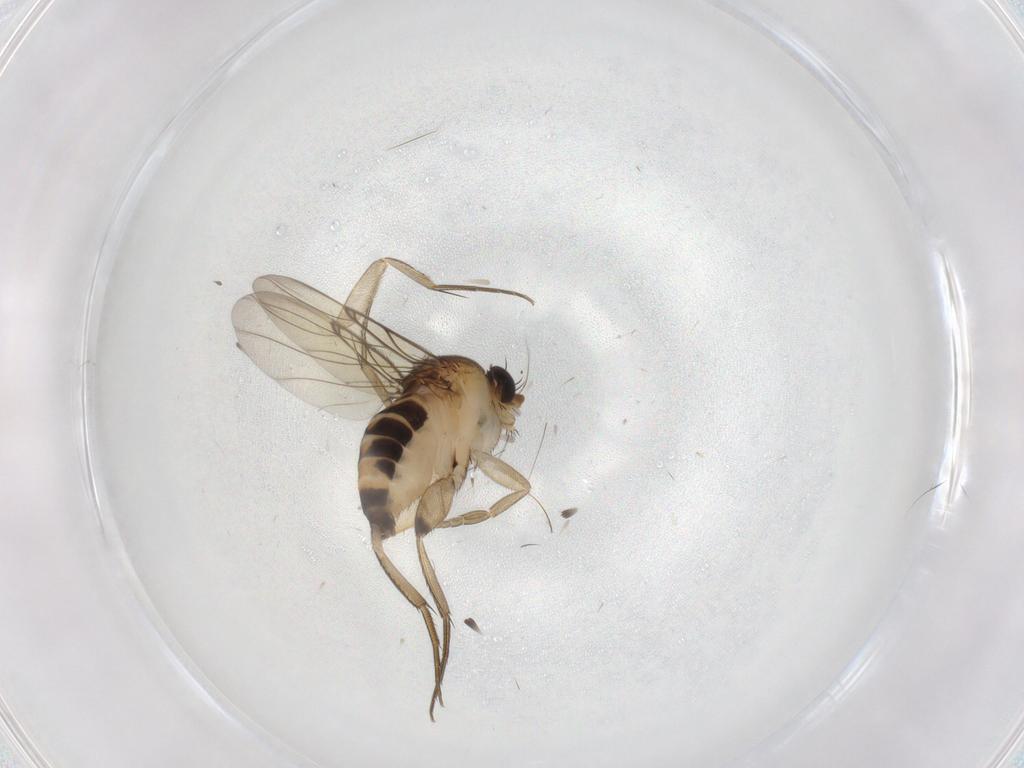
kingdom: Animalia
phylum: Arthropoda
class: Insecta
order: Diptera
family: Phoridae
